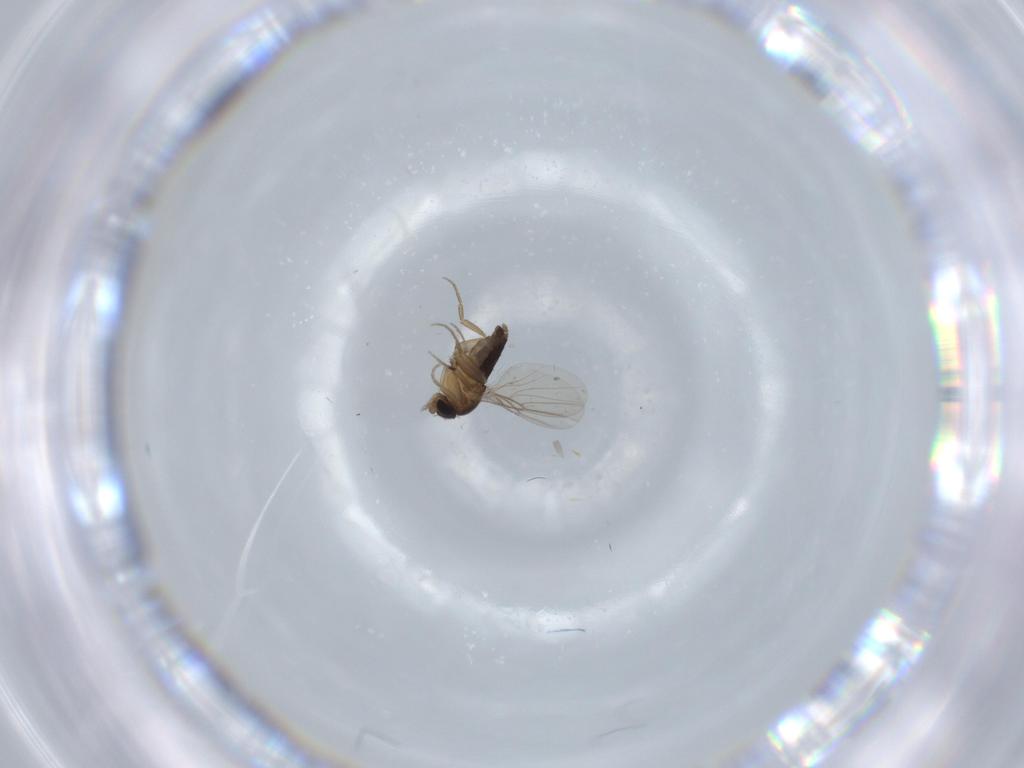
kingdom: Animalia
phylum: Arthropoda
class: Insecta
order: Diptera
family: Phoridae
